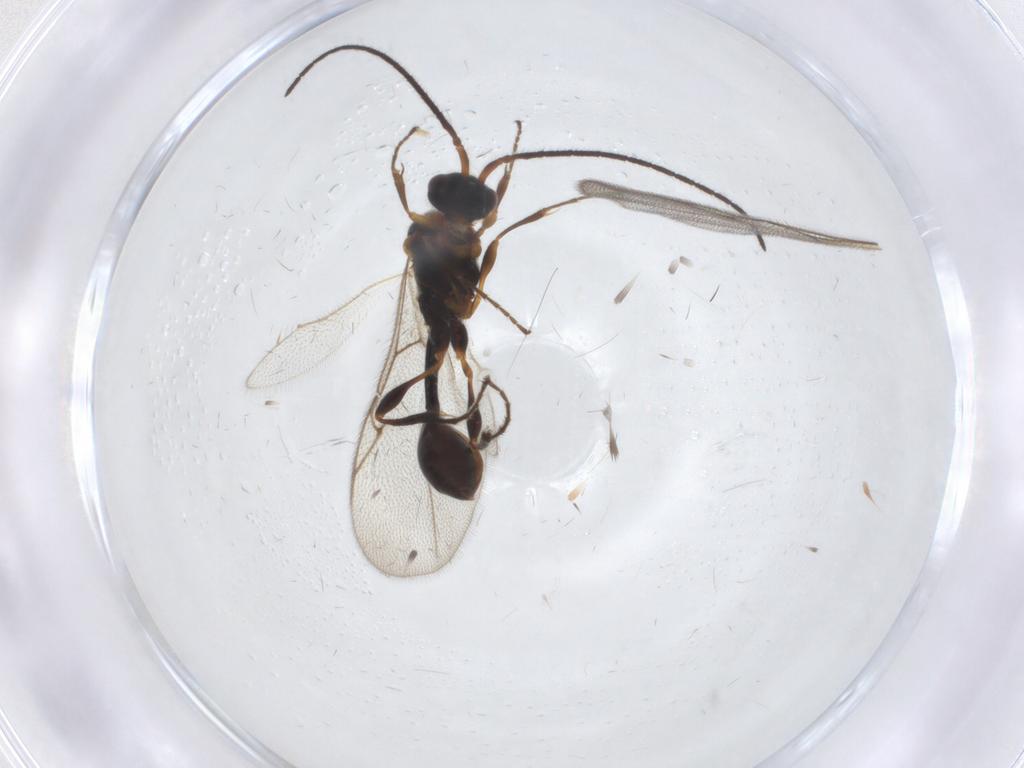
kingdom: Animalia
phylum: Arthropoda
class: Insecta
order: Hymenoptera
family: Diapriidae
